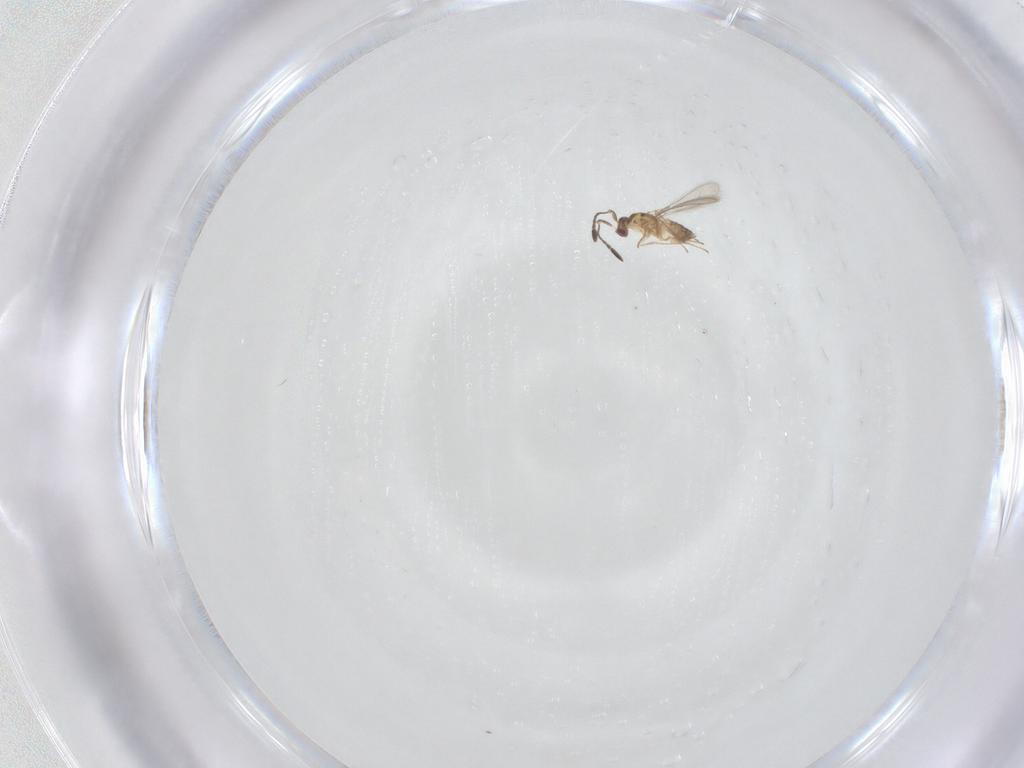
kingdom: Animalia
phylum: Arthropoda
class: Insecta
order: Hymenoptera
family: Mymaridae
